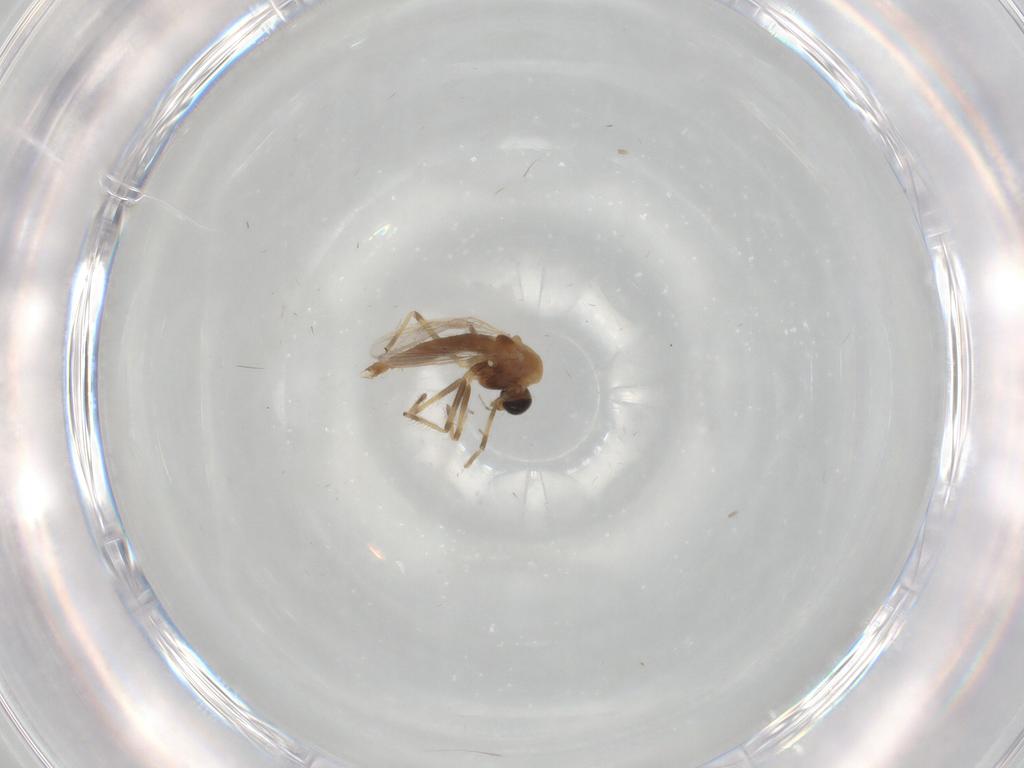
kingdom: Animalia
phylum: Arthropoda
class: Insecta
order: Diptera
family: Chironomidae
